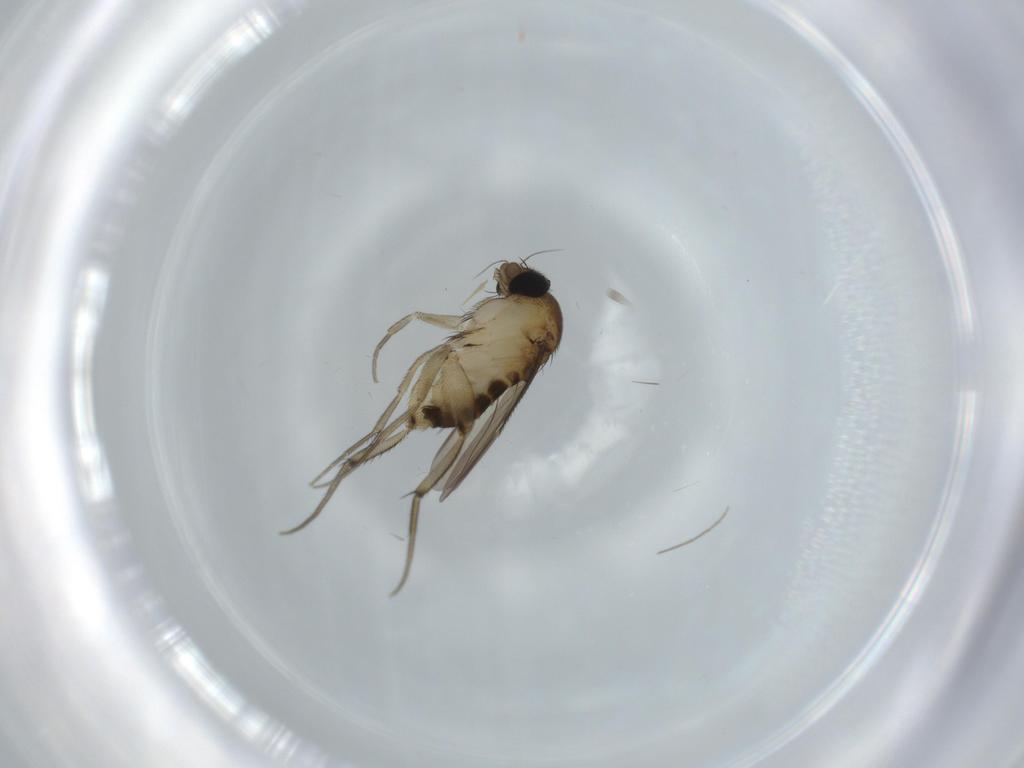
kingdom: Animalia
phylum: Arthropoda
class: Insecta
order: Diptera
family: Phoridae
